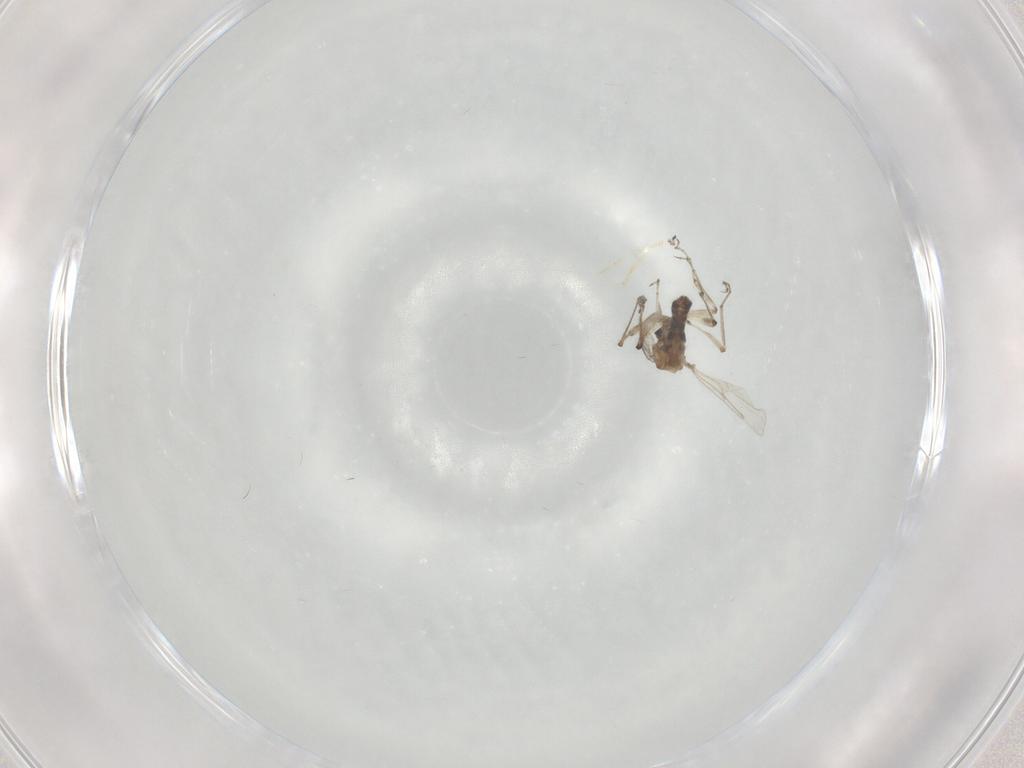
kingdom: Animalia
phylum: Arthropoda
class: Insecta
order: Diptera
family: Ceratopogonidae
